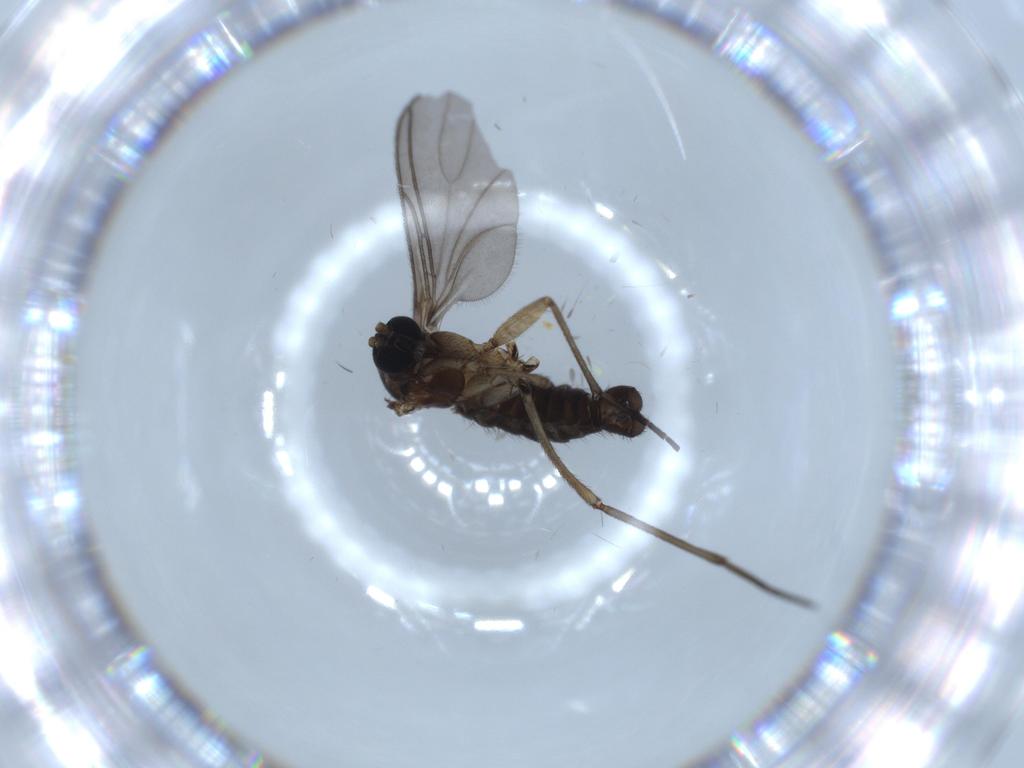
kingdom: Animalia
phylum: Arthropoda
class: Insecta
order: Diptera
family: Sciaridae
